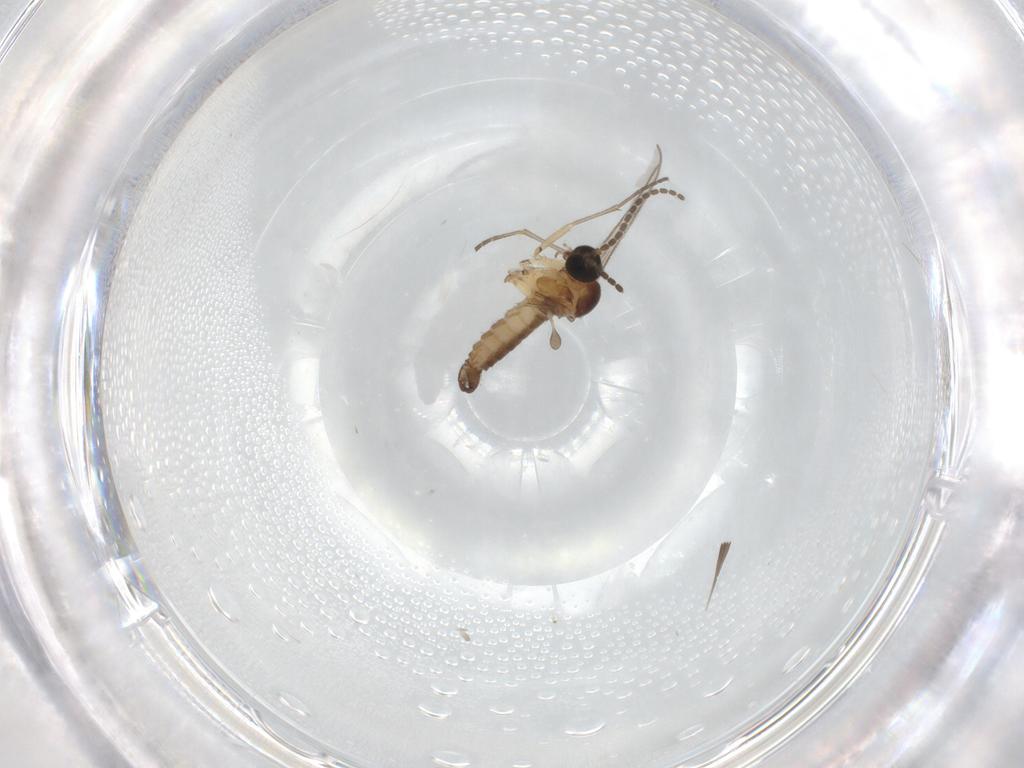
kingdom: Animalia
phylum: Arthropoda
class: Insecta
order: Diptera
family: Sciaridae
